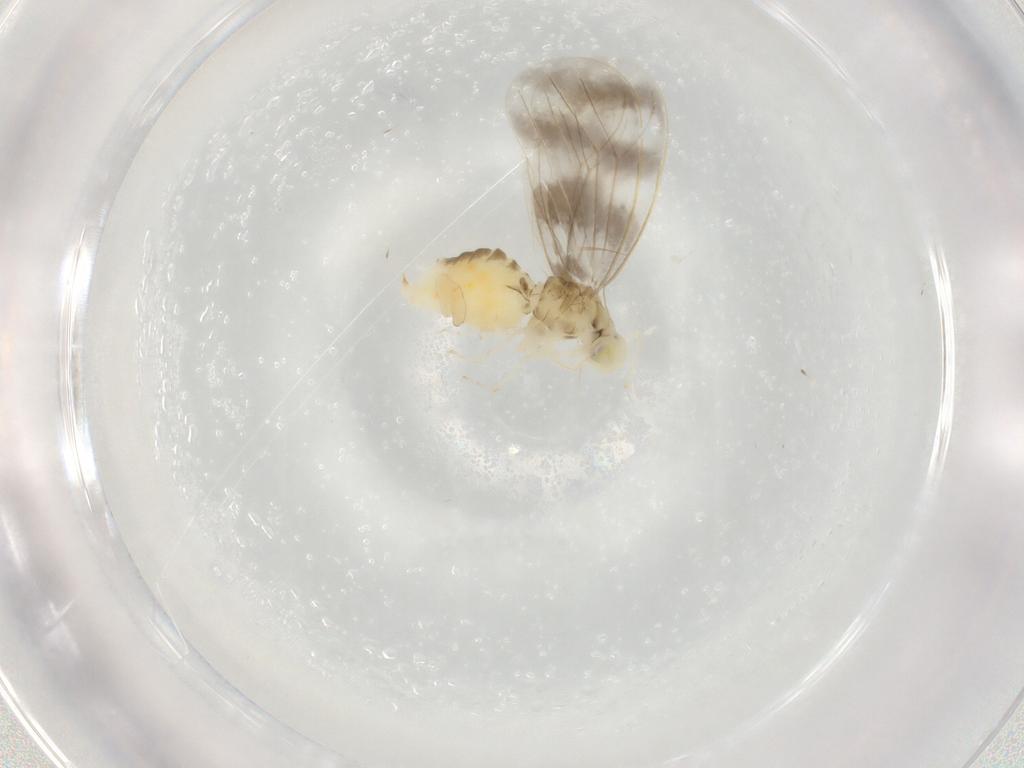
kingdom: Animalia
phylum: Arthropoda
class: Insecta
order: Hemiptera
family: Aleyrodidae
